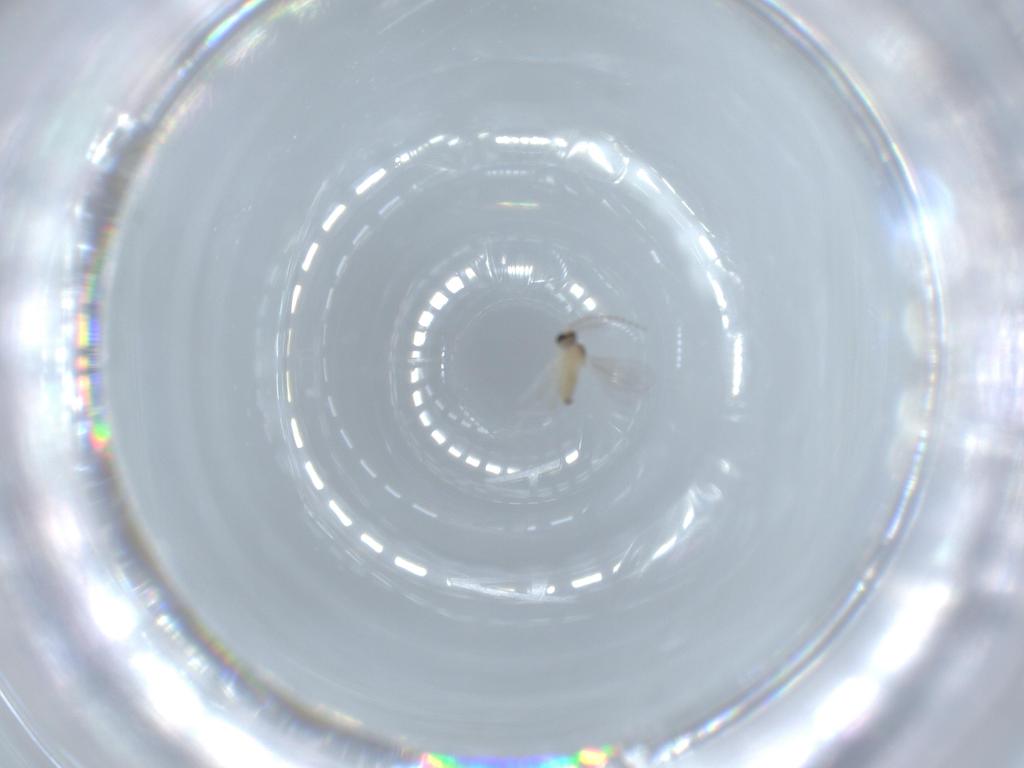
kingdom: Animalia
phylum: Arthropoda
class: Insecta
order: Diptera
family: Cecidomyiidae
